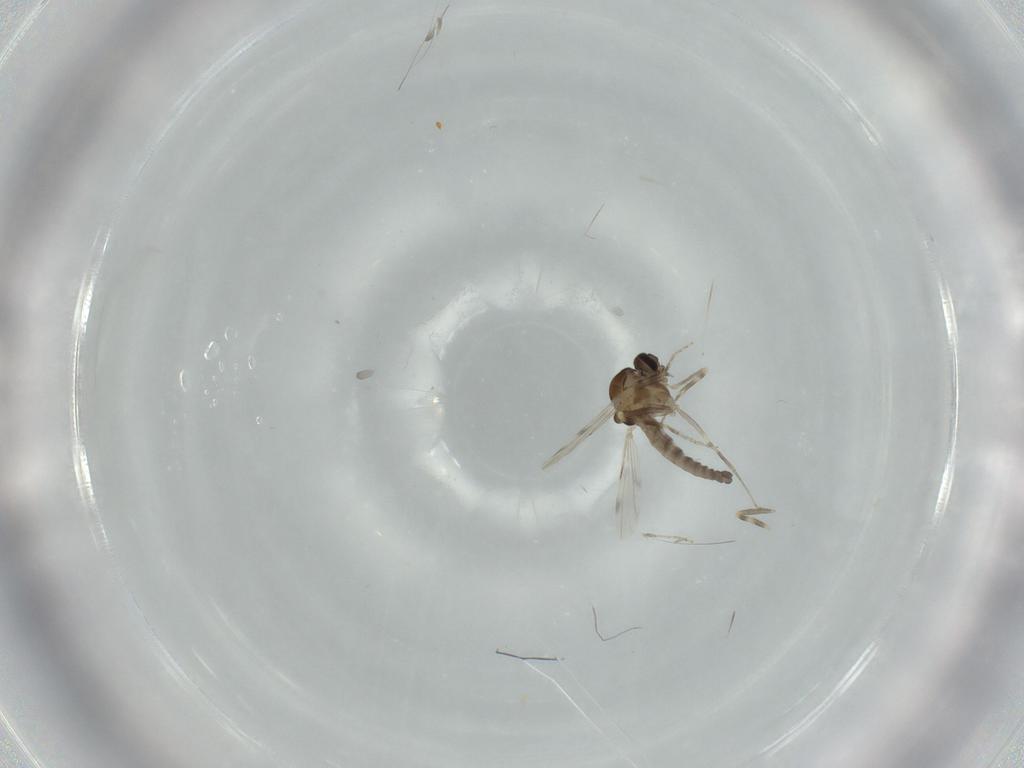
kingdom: Animalia
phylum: Arthropoda
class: Insecta
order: Diptera
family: Ceratopogonidae
